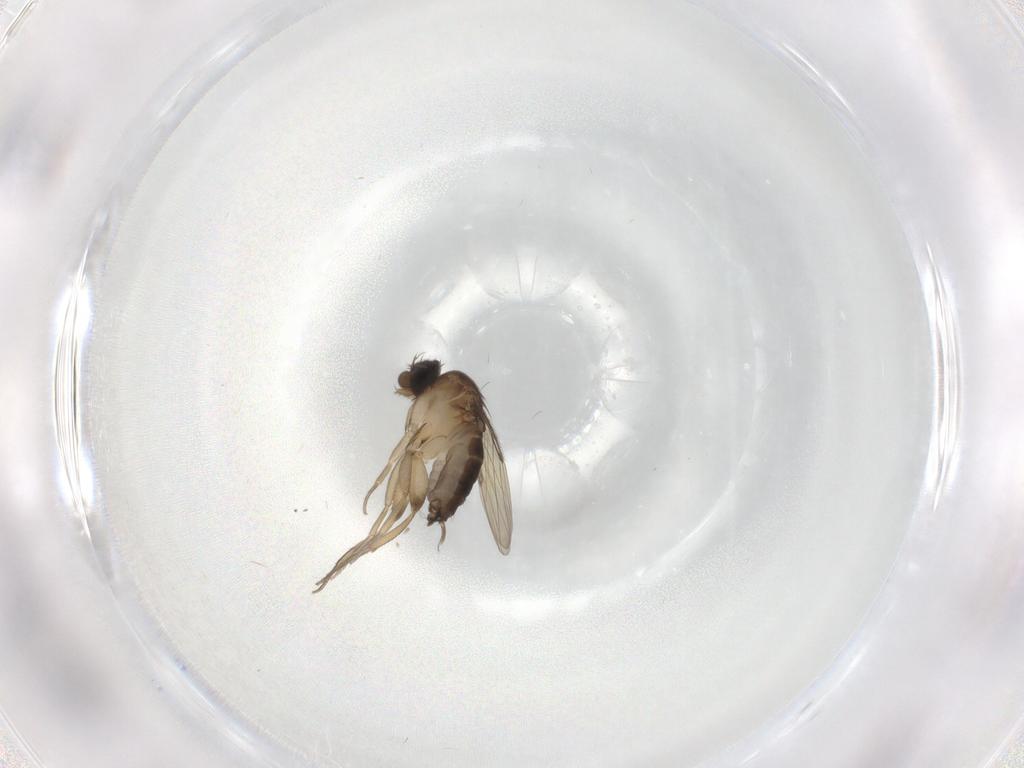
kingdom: Animalia
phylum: Arthropoda
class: Insecta
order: Diptera
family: Phoridae
